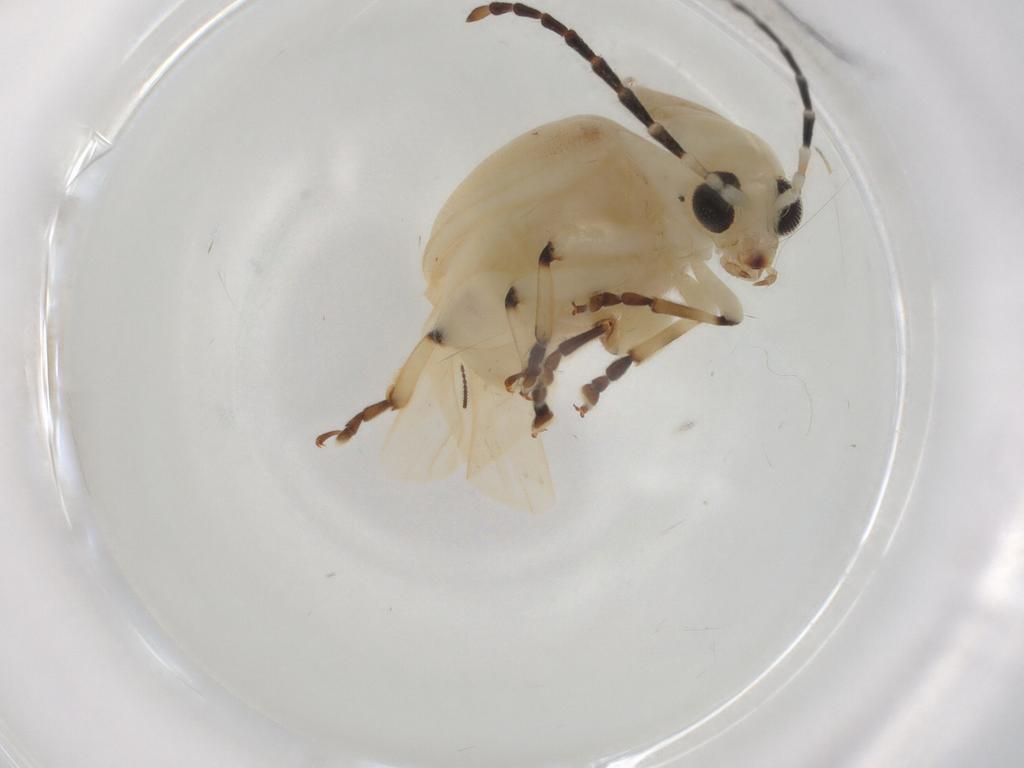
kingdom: Animalia
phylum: Arthropoda
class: Insecta
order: Coleoptera
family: Chrysomelidae
